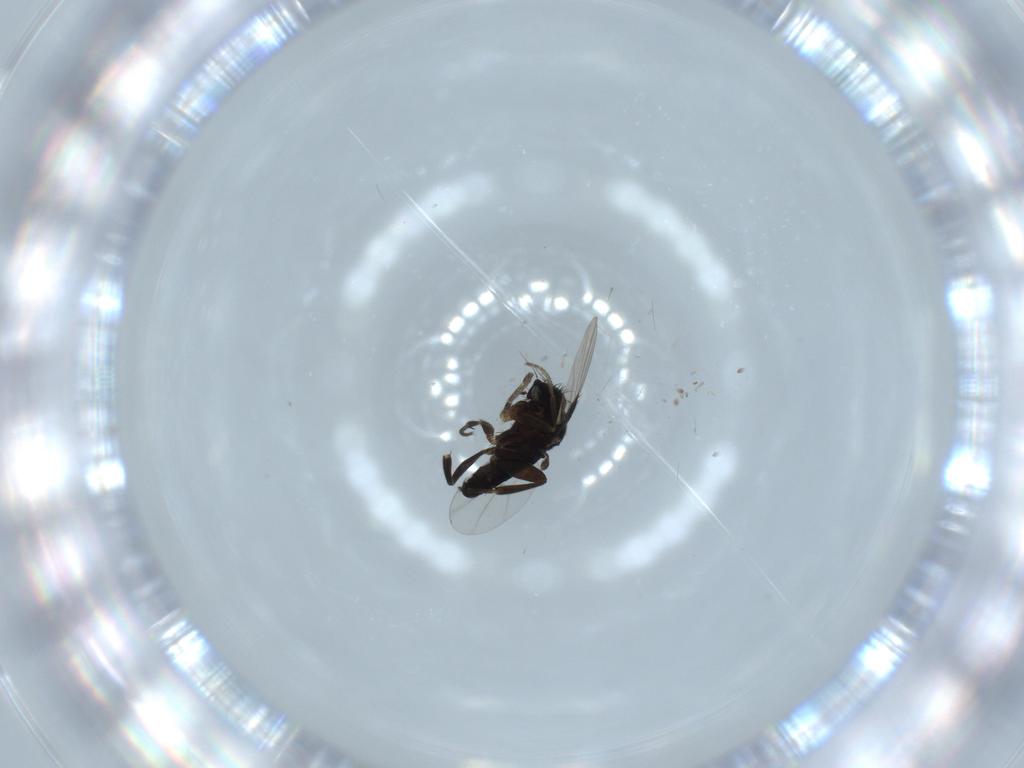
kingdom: Animalia
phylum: Arthropoda
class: Insecta
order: Diptera
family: Phoridae
